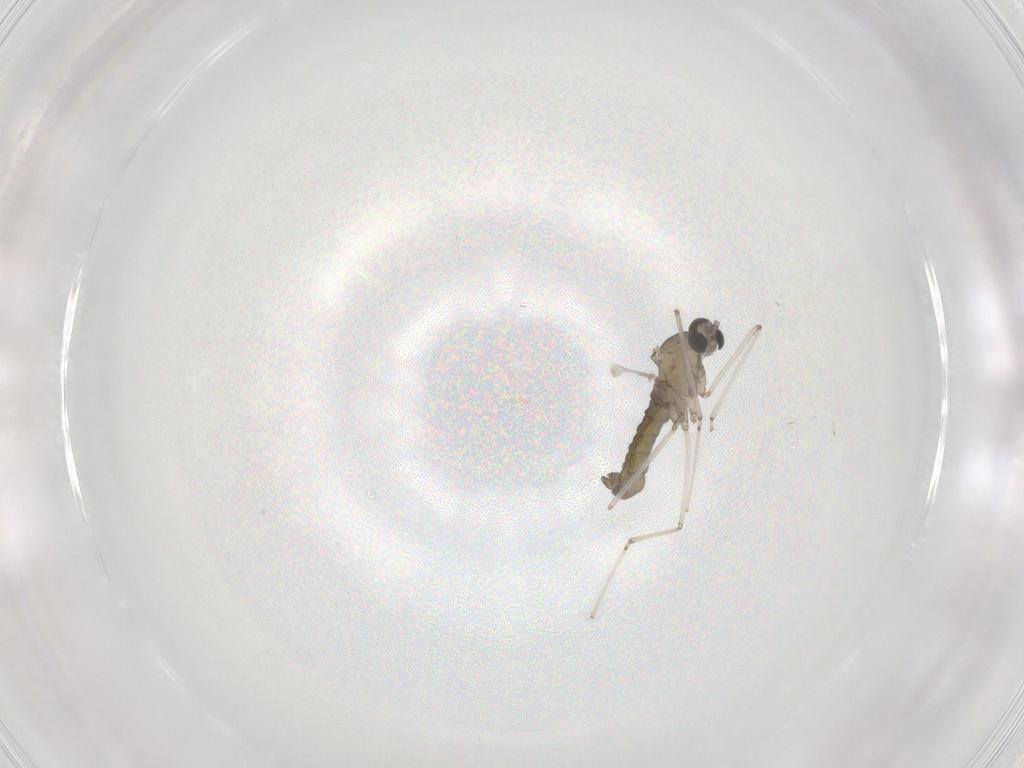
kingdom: Animalia
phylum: Arthropoda
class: Insecta
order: Diptera
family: Cecidomyiidae
